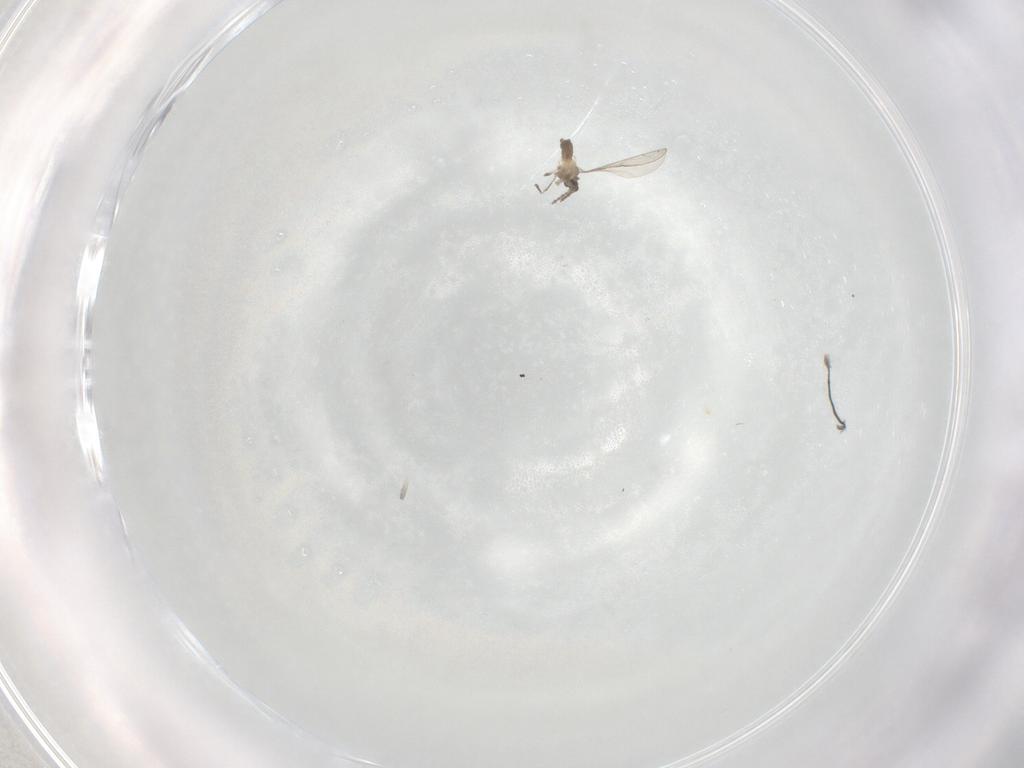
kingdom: Animalia
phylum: Arthropoda
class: Insecta
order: Diptera
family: Cecidomyiidae
